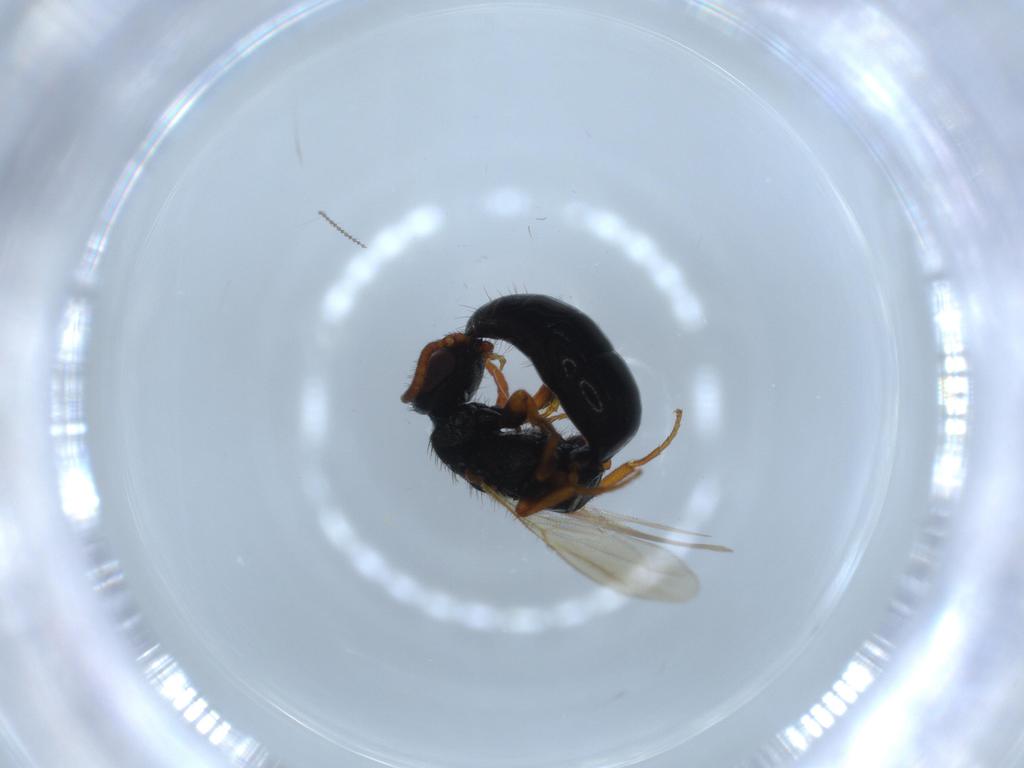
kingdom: Animalia
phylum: Arthropoda
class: Insecta
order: Hymenoptera
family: Bethylidae
